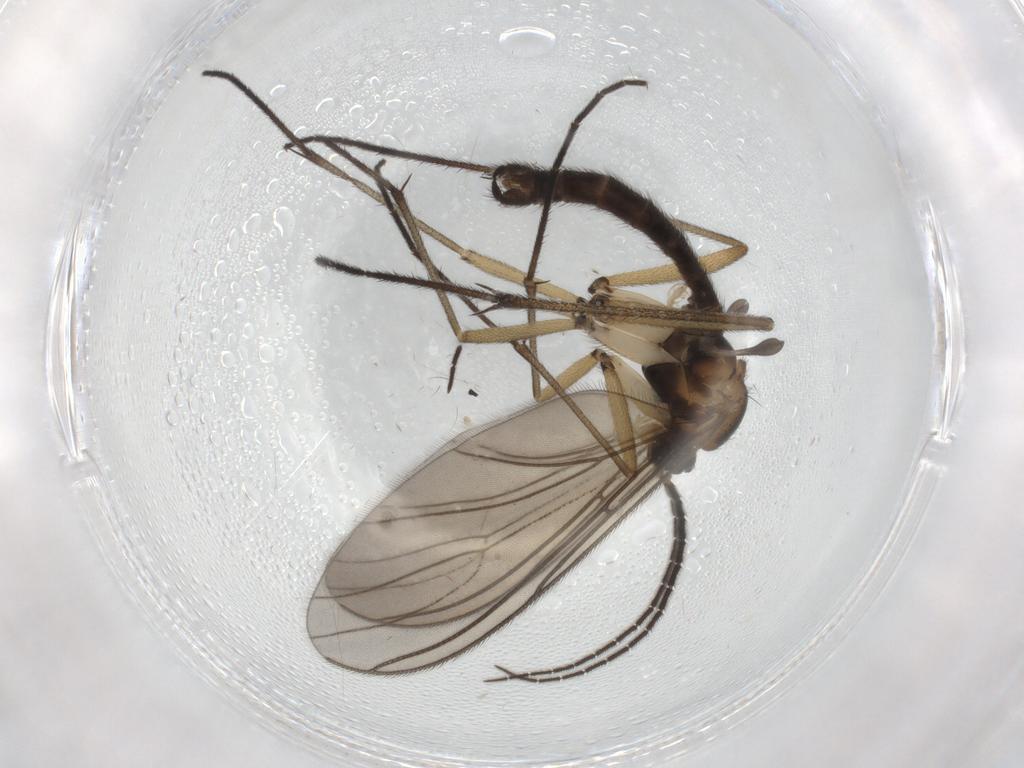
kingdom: Animalia
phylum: Arthropoda
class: Insecta
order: Diptera
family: Sciaridae
